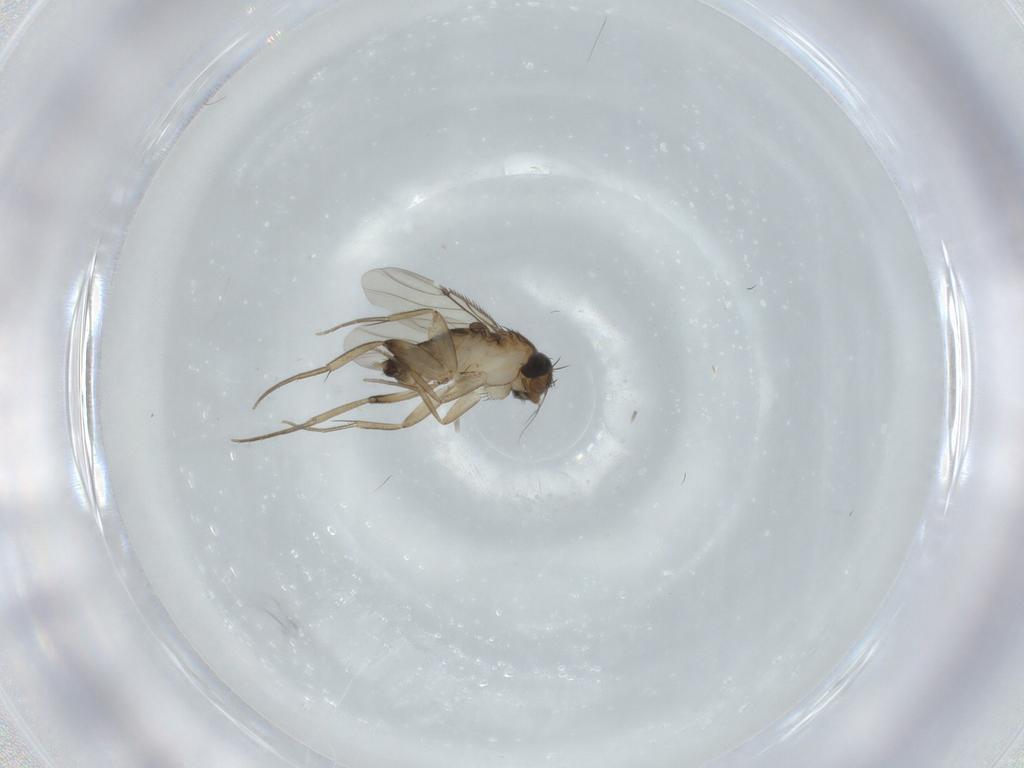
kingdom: Animalia
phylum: Arthropoda
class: Insecta
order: Diptera
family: Phoridae
